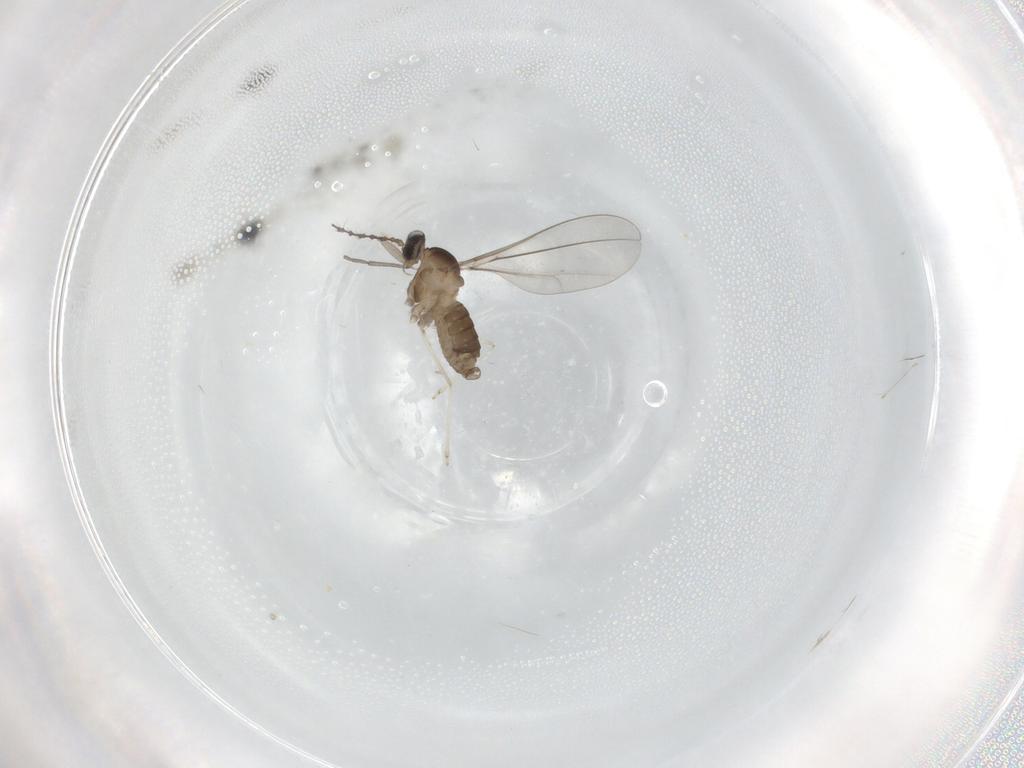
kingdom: Animalia
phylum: Arthropoda
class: Insecta
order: Diptera
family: Cecidomyiidae
